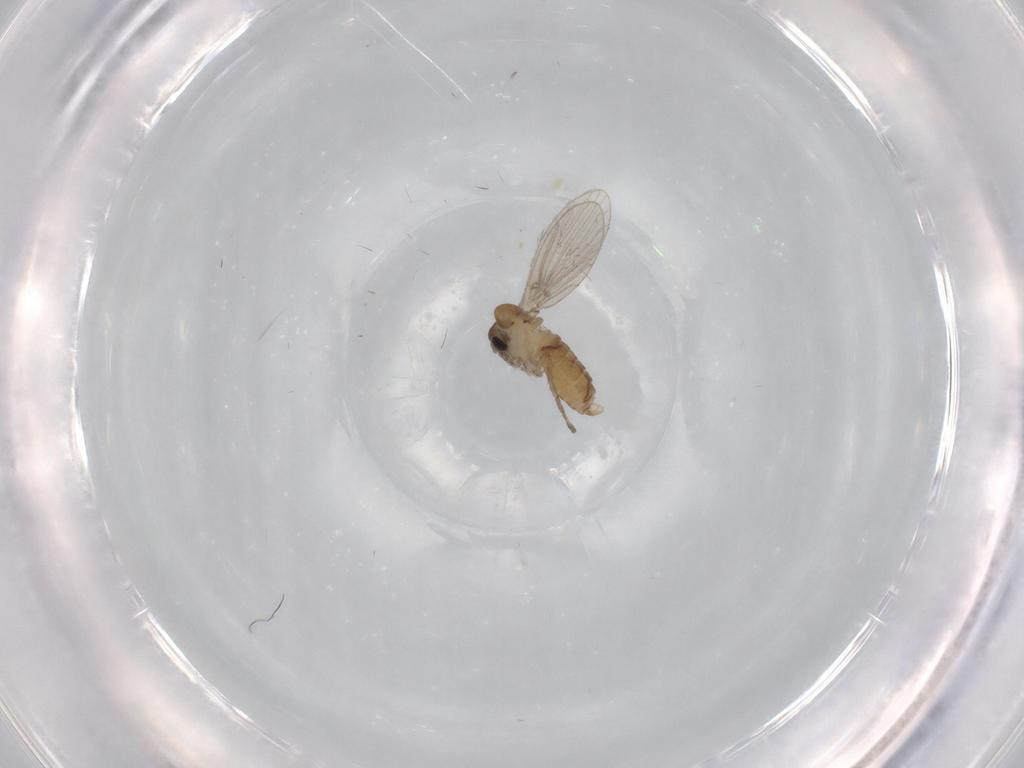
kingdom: Animalia
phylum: Arthropoda
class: Insecta
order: Diptera
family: Psychodidae
